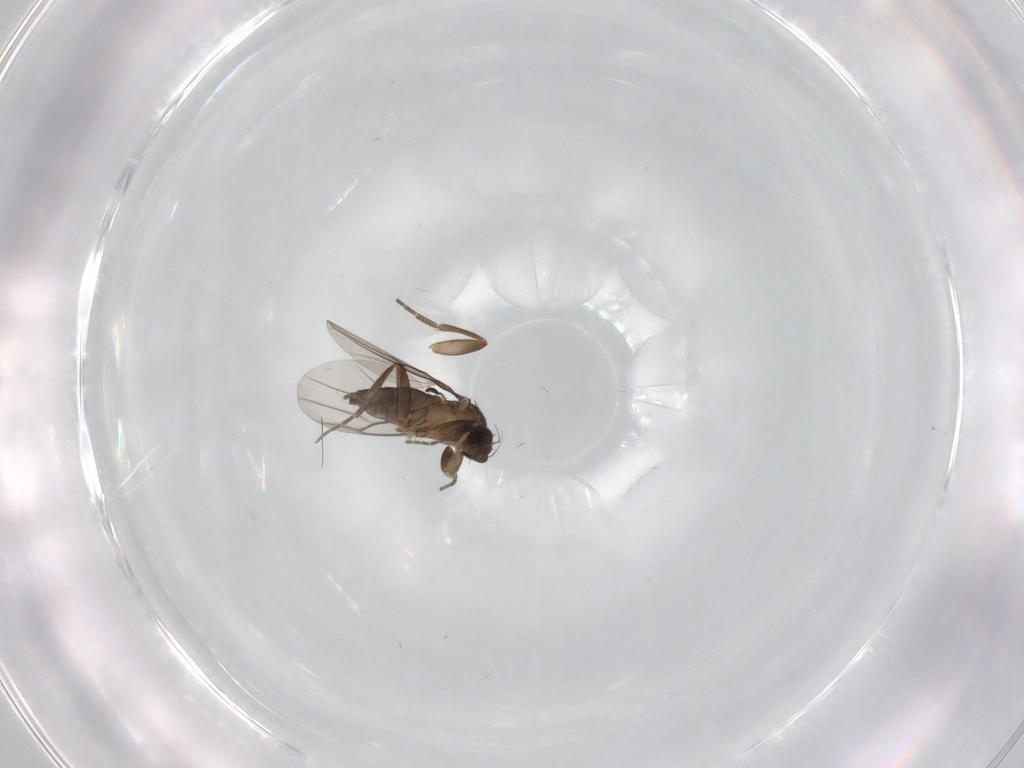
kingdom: Animalia
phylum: Arthropoda
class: Insecta
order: Diptera
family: Phoridae
